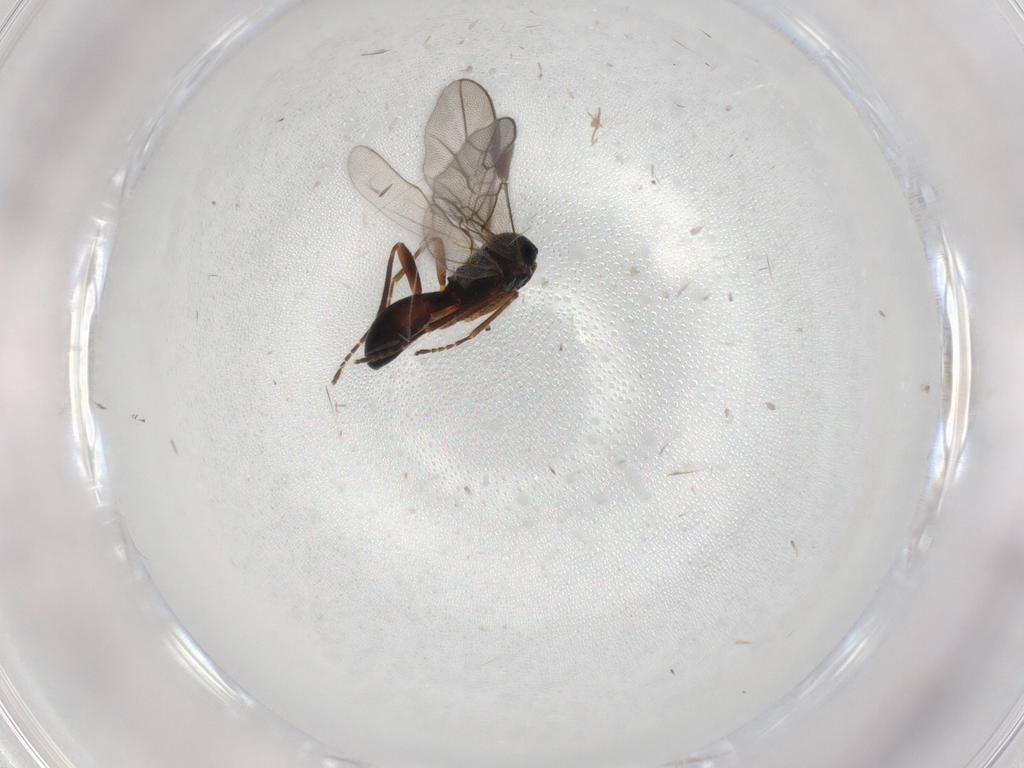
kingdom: Animalia
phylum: Arthropoda
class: Insecta
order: Hymenoptera
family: Braconidae
